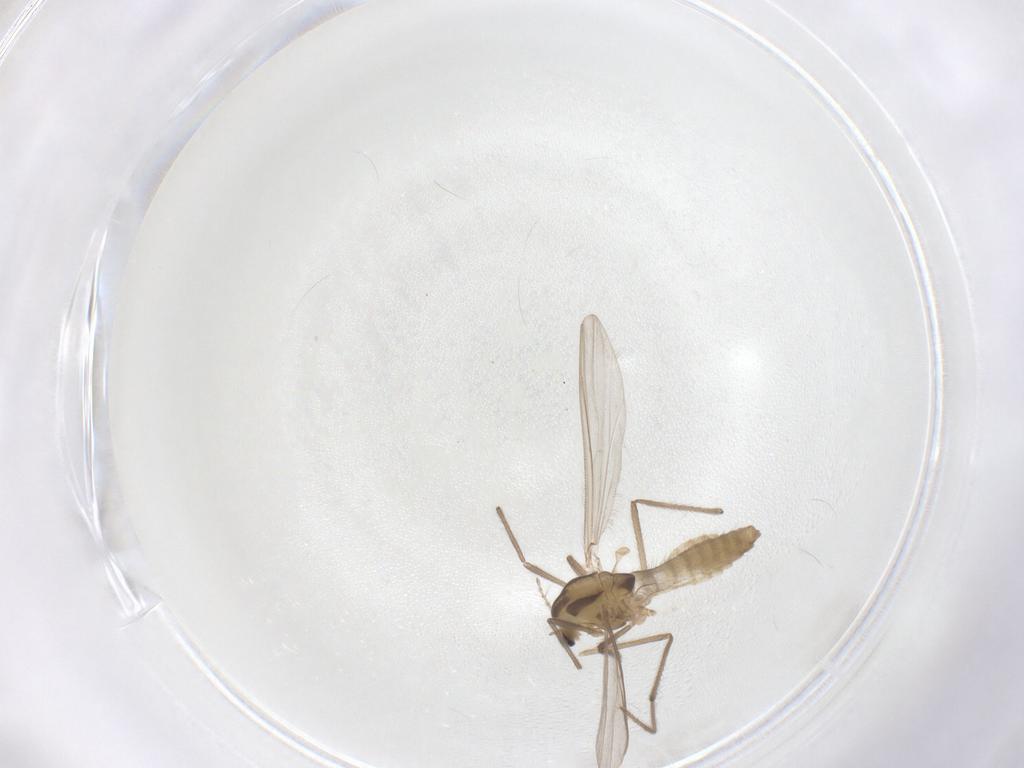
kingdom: Animalia
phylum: Arthropoda
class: Insecta
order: Diptera
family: Chironomidae
